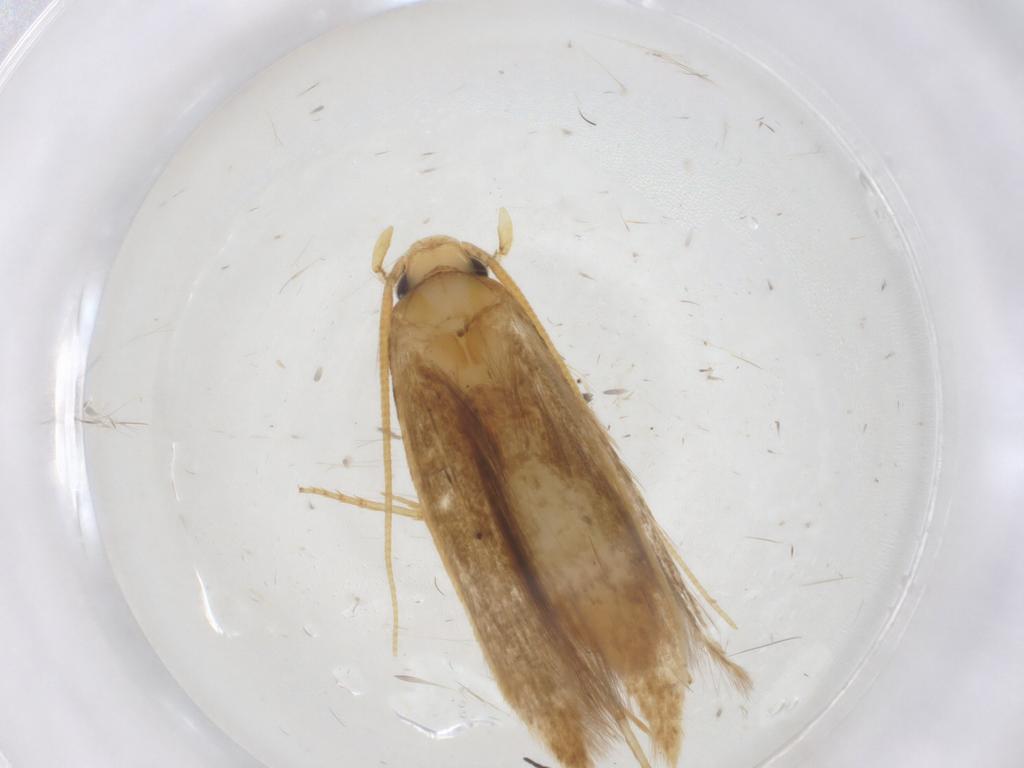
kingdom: Animalia
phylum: Arthropoda
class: Insecta
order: Lepidoptera
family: Tineidae
